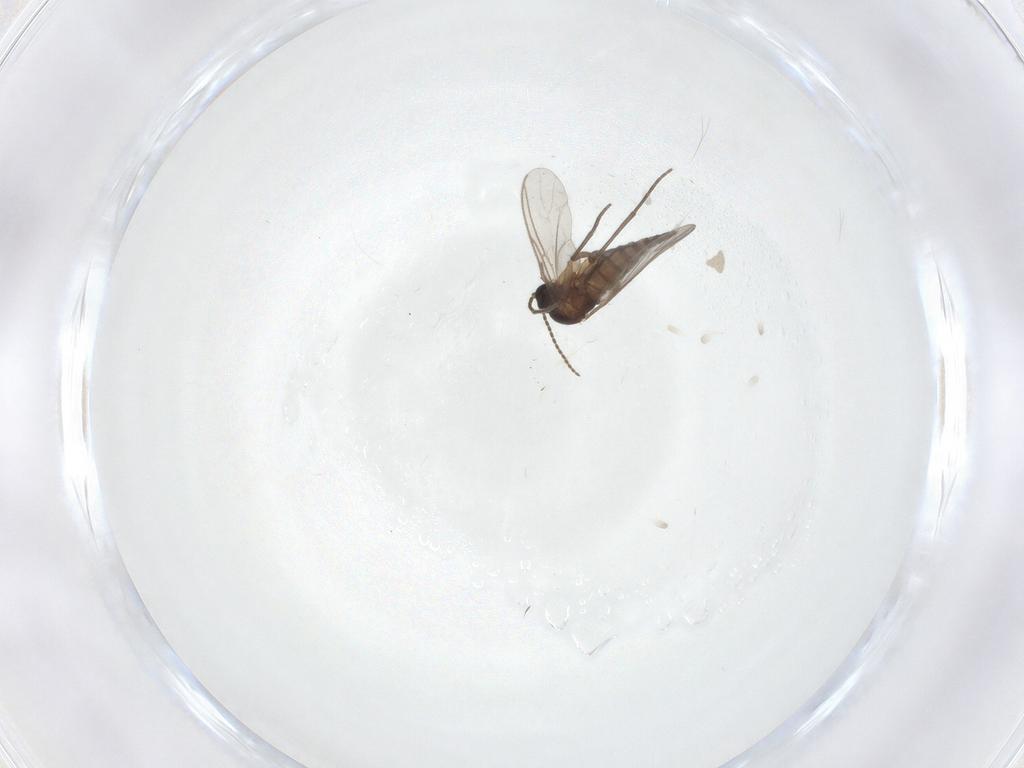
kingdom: Animalia
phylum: Arthropoda
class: Insecta
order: Diptera
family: Sciaridae
